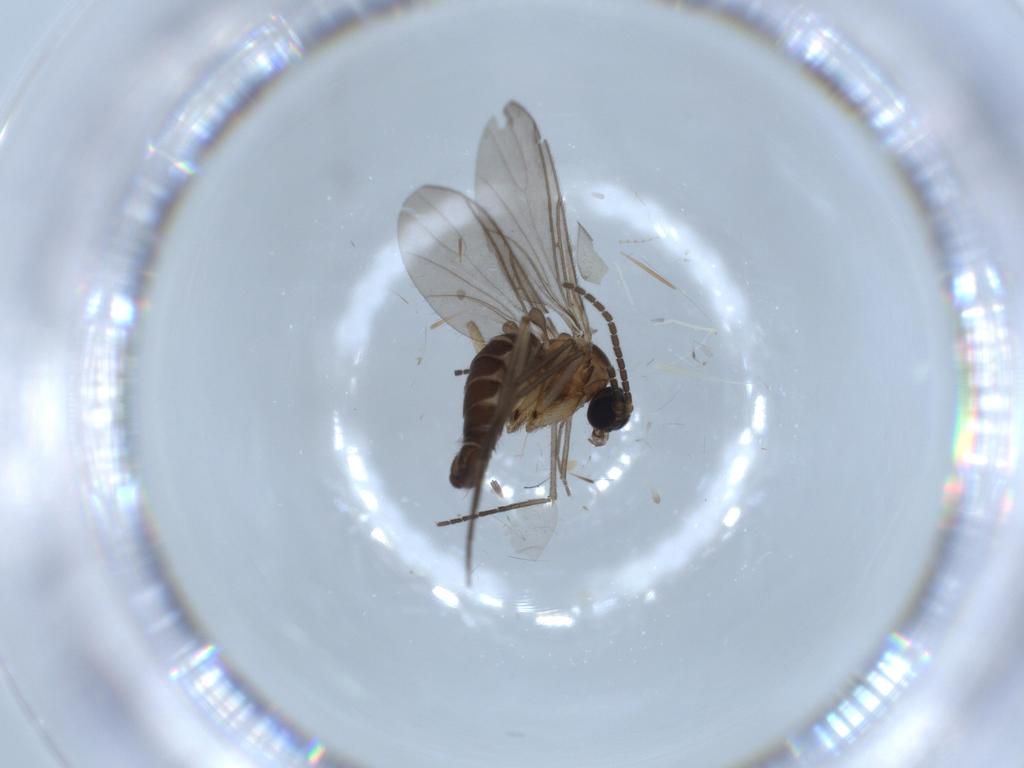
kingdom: Animalia
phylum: Arthropoda
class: Insecta
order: Diptera
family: Sciaridae
